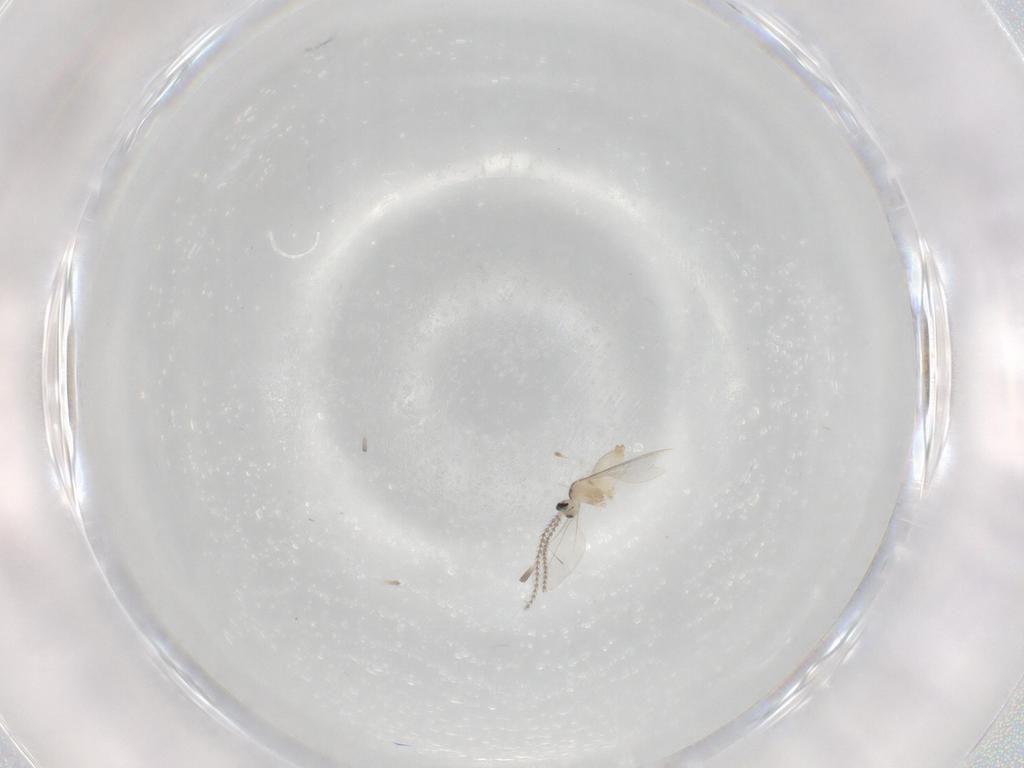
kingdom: Animalia
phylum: Arthropoda
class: Insecta
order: Diptera
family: Cecidomyiidae
